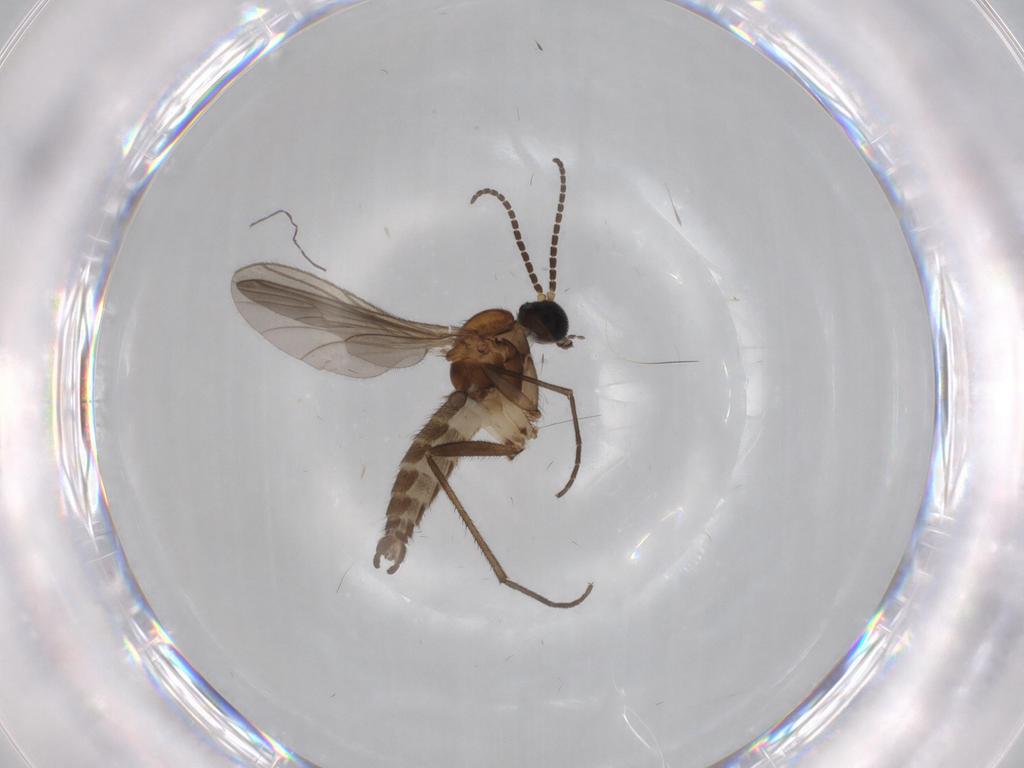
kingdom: Animalia
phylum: Arthropoda
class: Insecta
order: Diptera
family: Sciaridae
